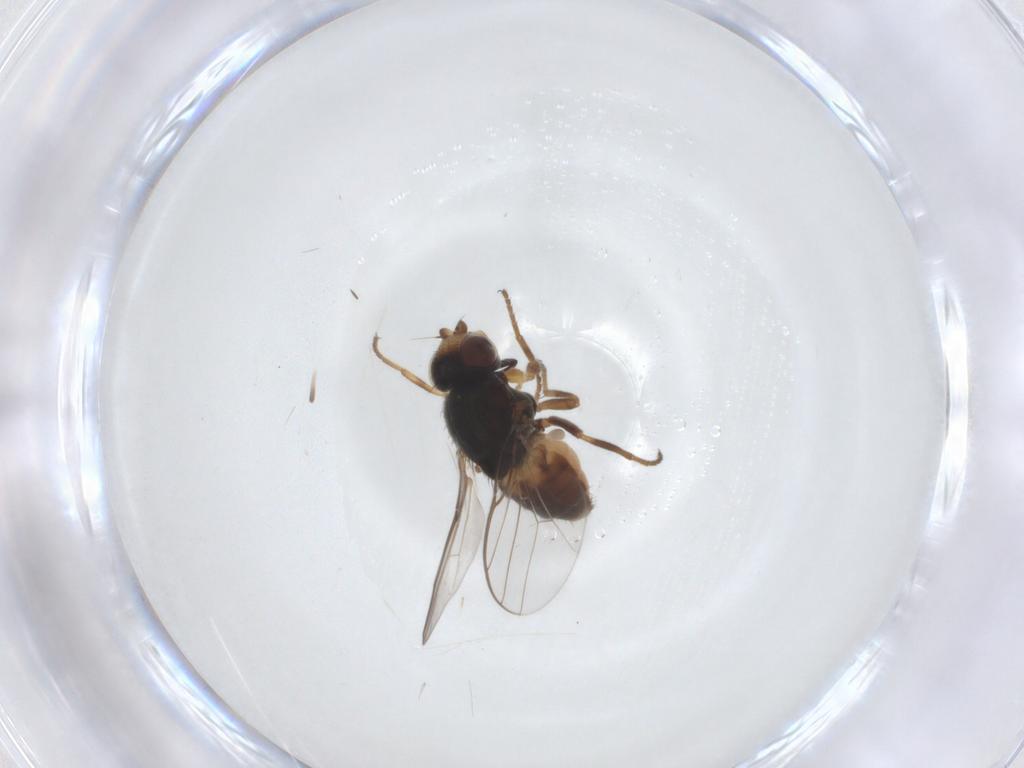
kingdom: Animalia
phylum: Arthropoda
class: Insecta
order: Diptera
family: Chloropidae
